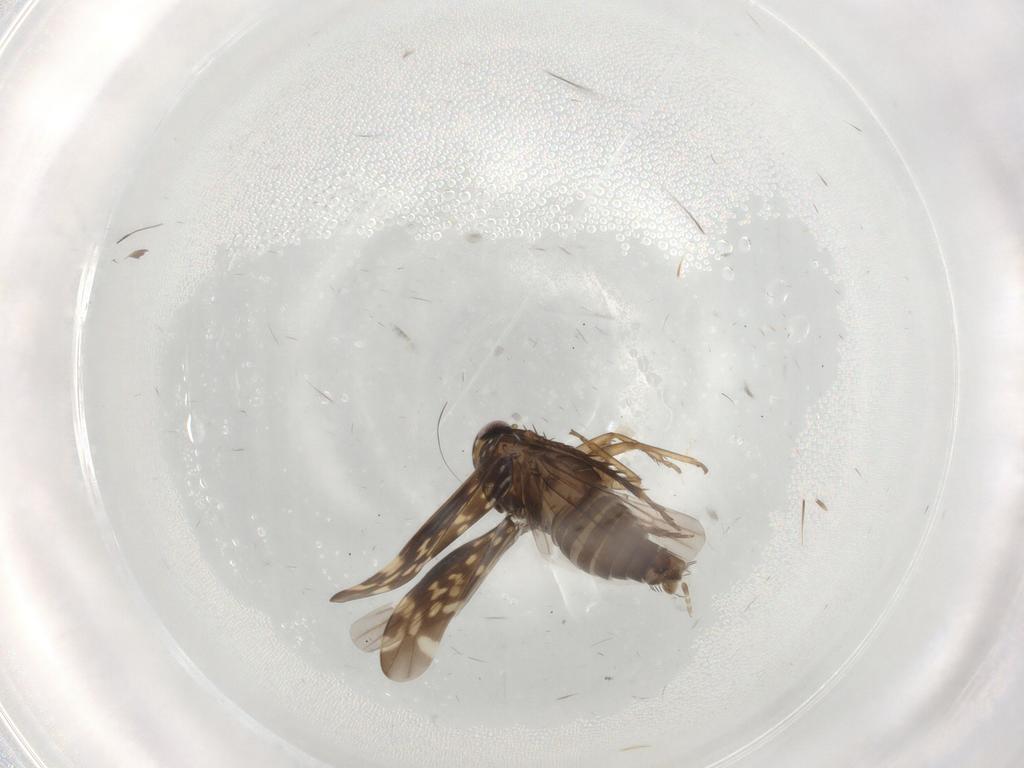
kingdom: Animalia
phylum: Arthropoda
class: Insecta
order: Hemiptera
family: Cicadellidae
